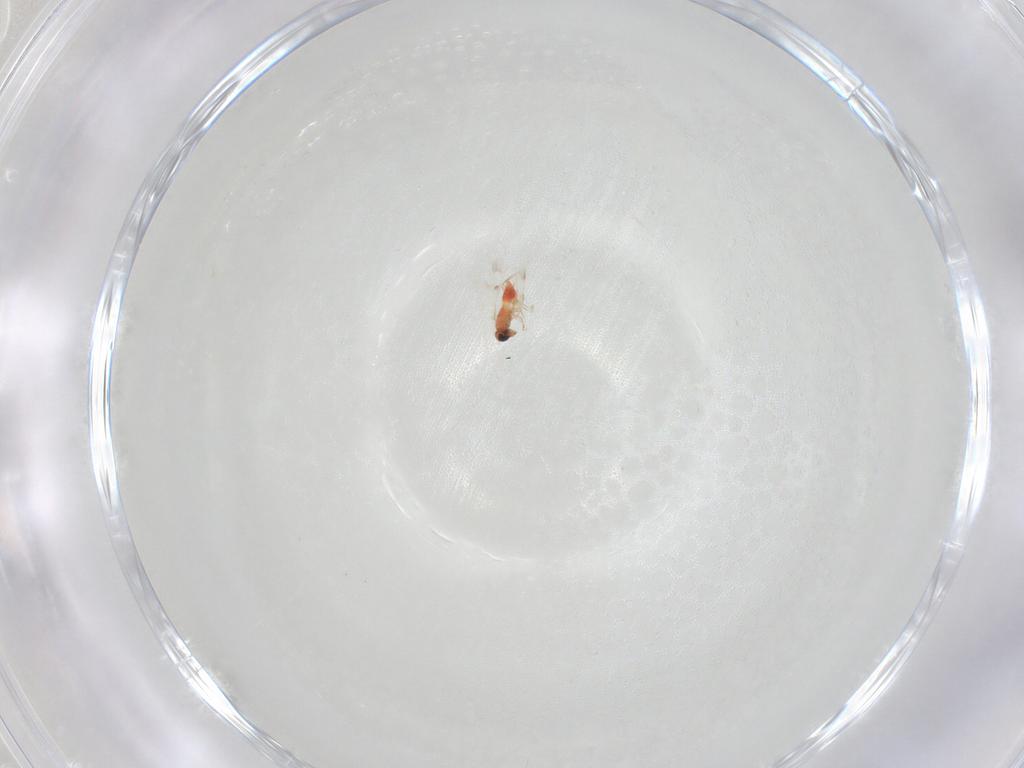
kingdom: Animalia
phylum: Arthropoda
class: Insecta
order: Hymenoptera
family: Trichogrammatidae
